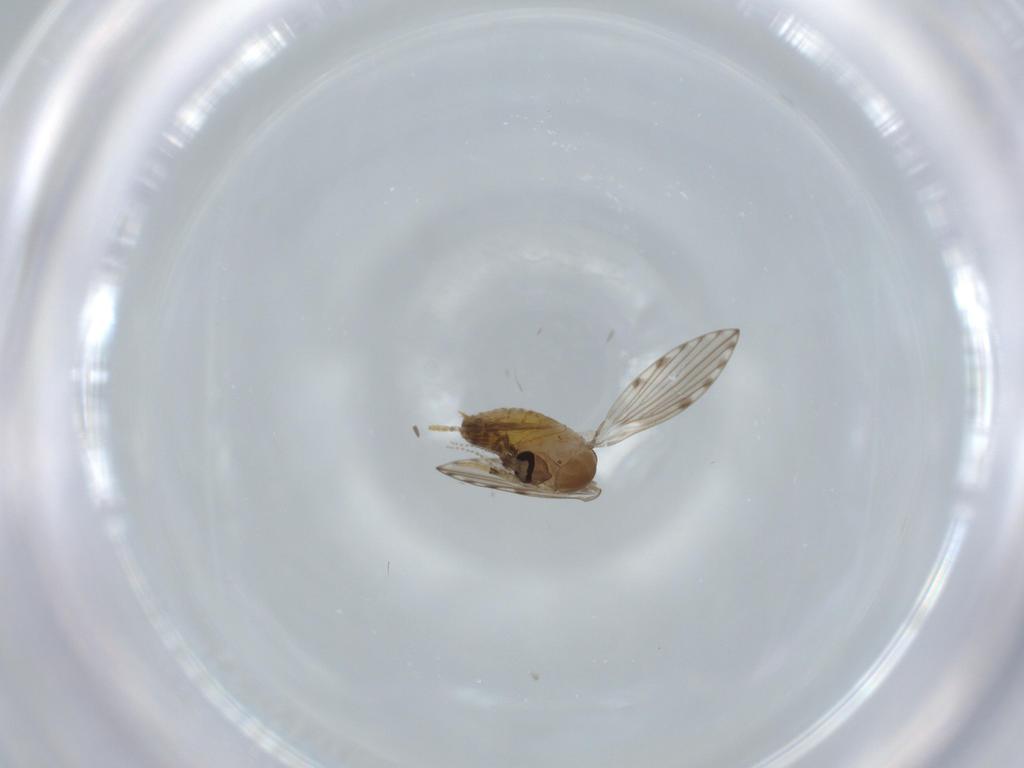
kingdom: Animalia
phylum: Arthropoda
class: Insecta
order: Diptera
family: Psychodidae
